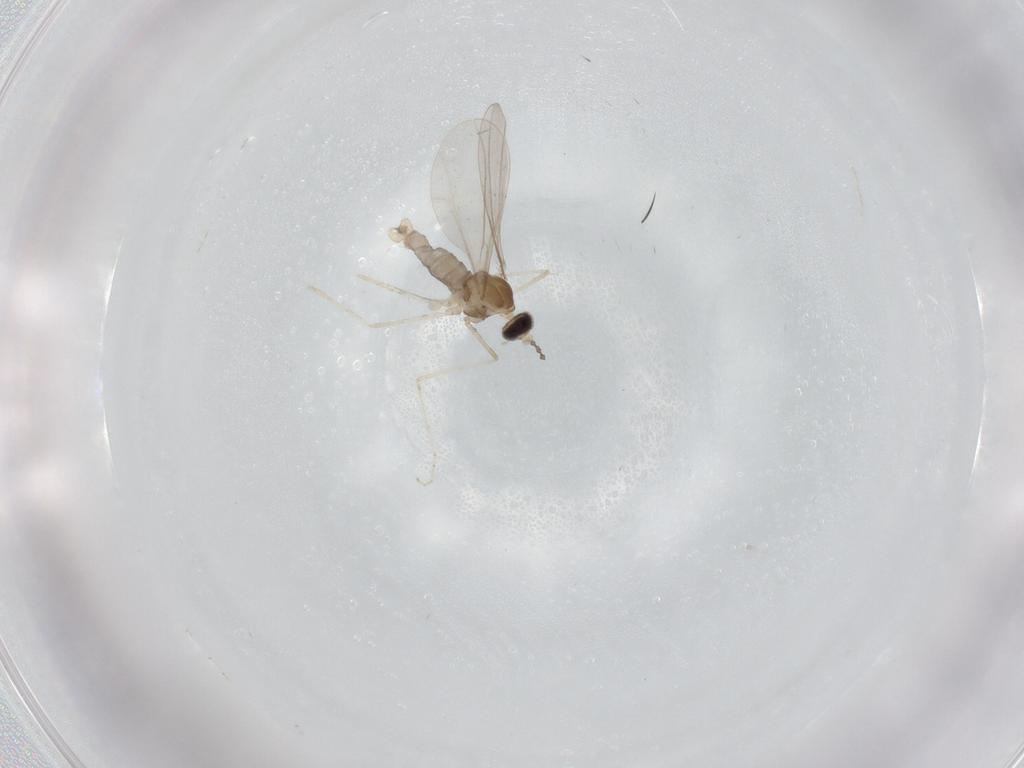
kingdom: Animalia
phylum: Arthropoda
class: Insecta
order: Diptera
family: Cecidomyiidae
